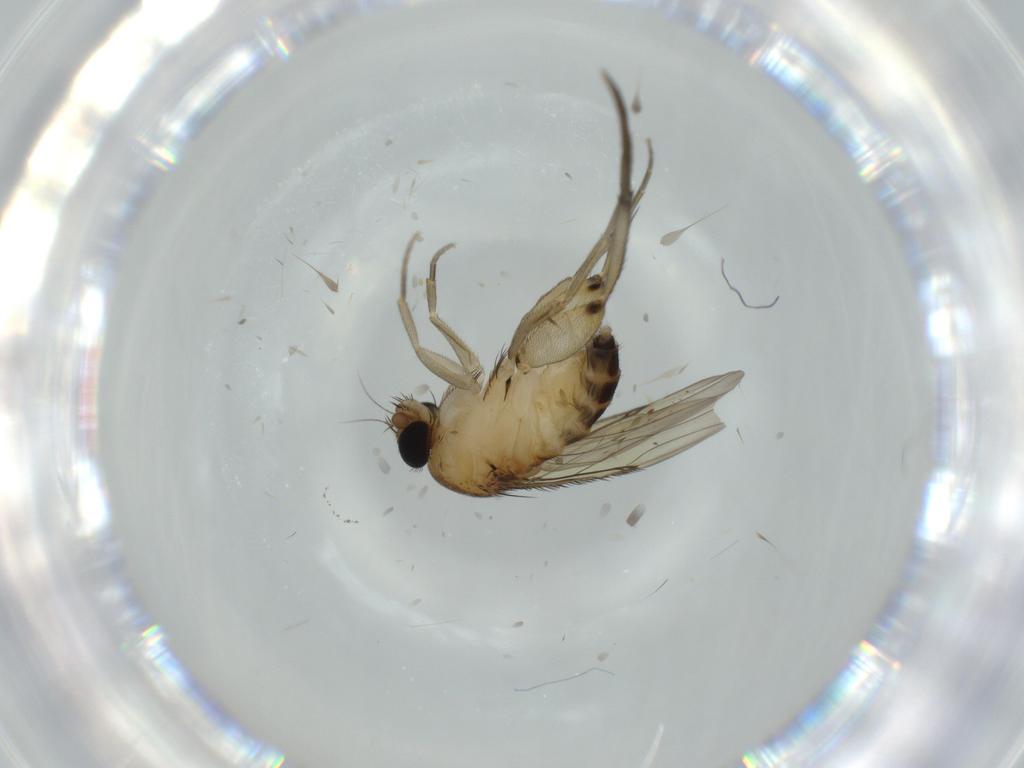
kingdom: Animalia
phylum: Arthropoda
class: Insecta
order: Diptera
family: Phoridae
